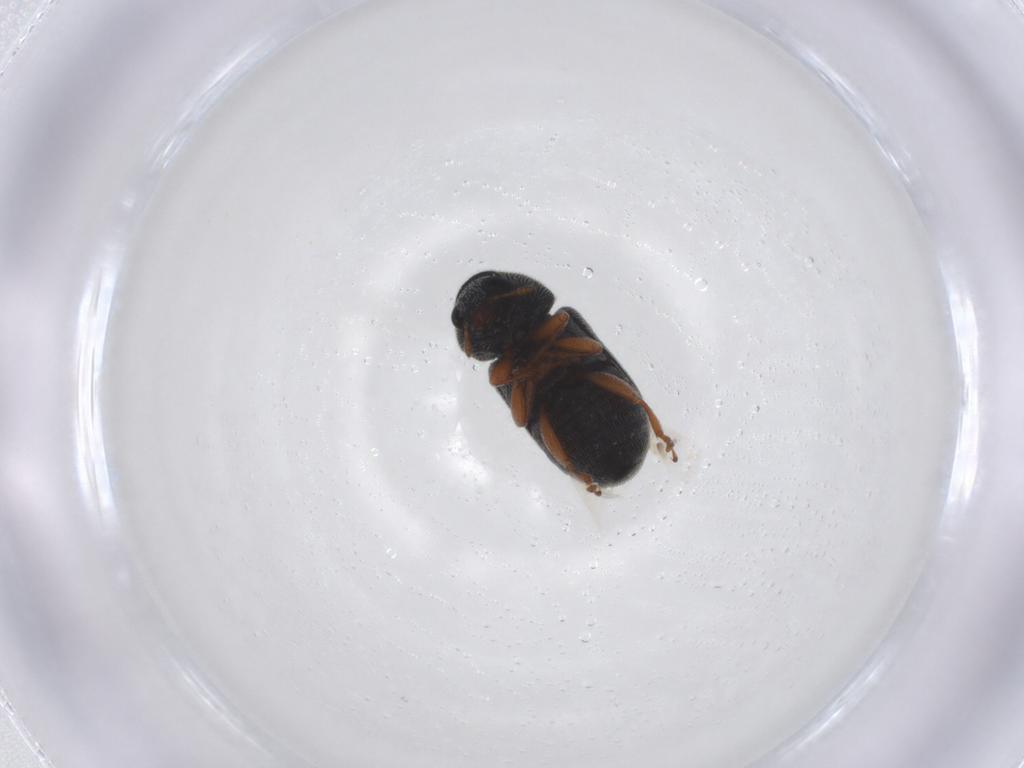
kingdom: Animalia
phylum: Arthropoda
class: Insecta
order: Coleoptera
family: Anthribidae
